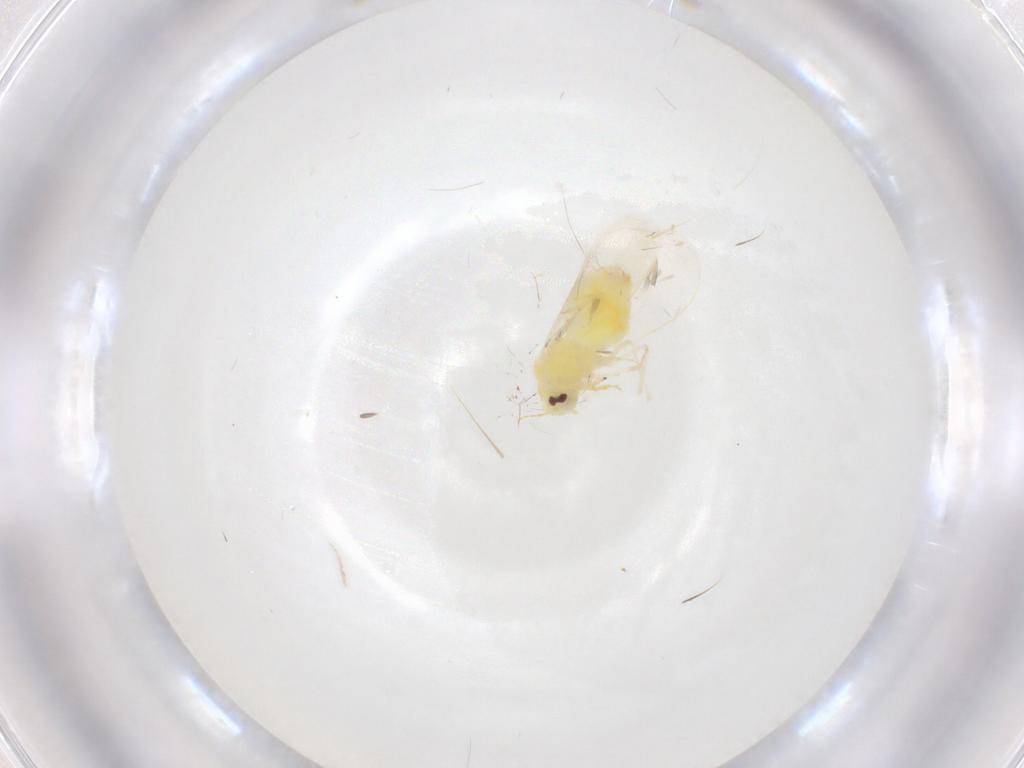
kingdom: Animalia
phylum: Arthropoda
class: Insecta
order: Hemiptera
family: Aleyrodidae
